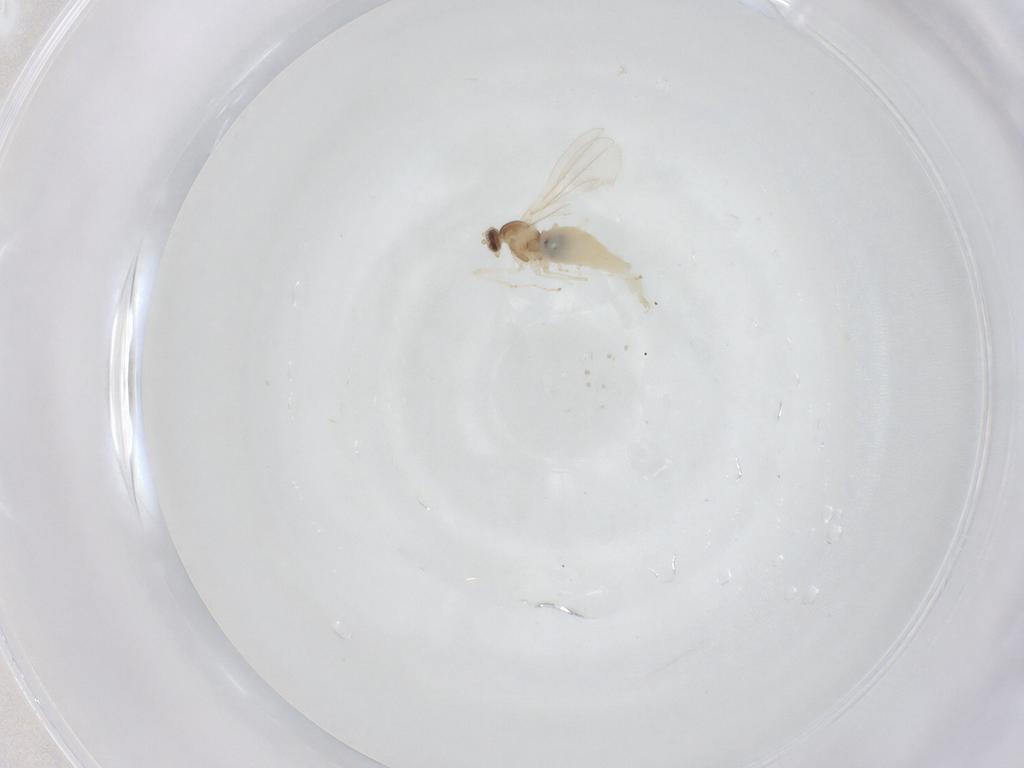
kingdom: Animalia
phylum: Arthropoda
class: Insecta
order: Diptera
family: Cecidomyiidae
